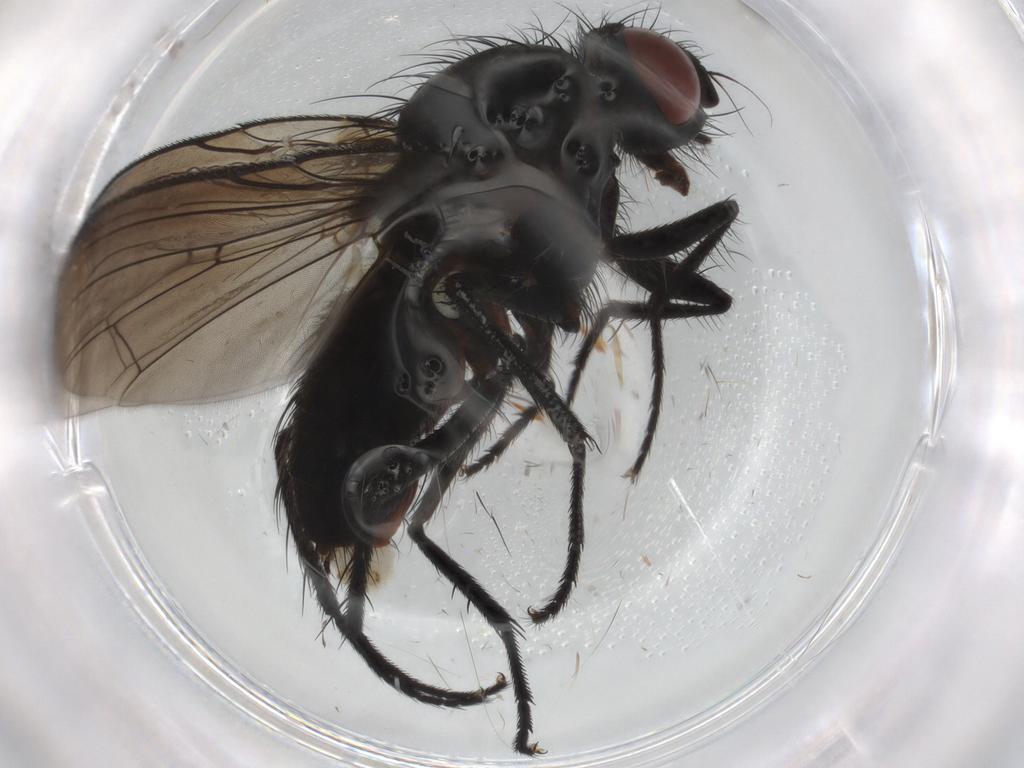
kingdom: Animalia
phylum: Arthropoda
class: Insecta
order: Diptera
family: Anthomyiidae
